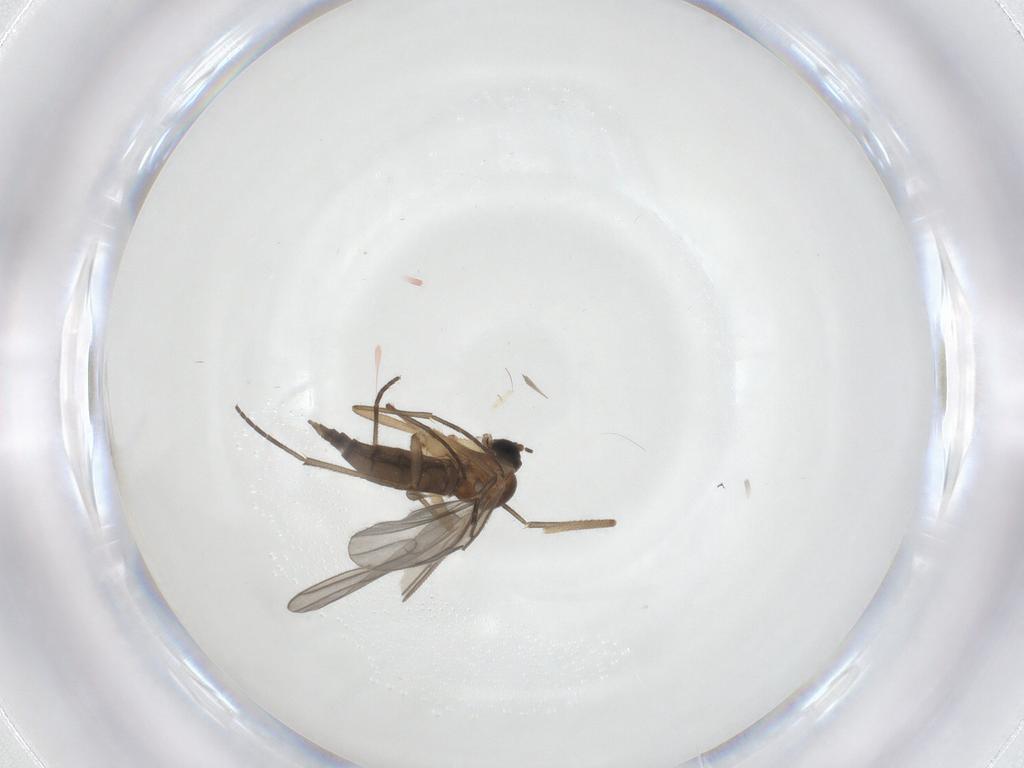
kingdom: Animalia
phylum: Arthropoda
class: Insecta
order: Diptera
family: Sciaridae
